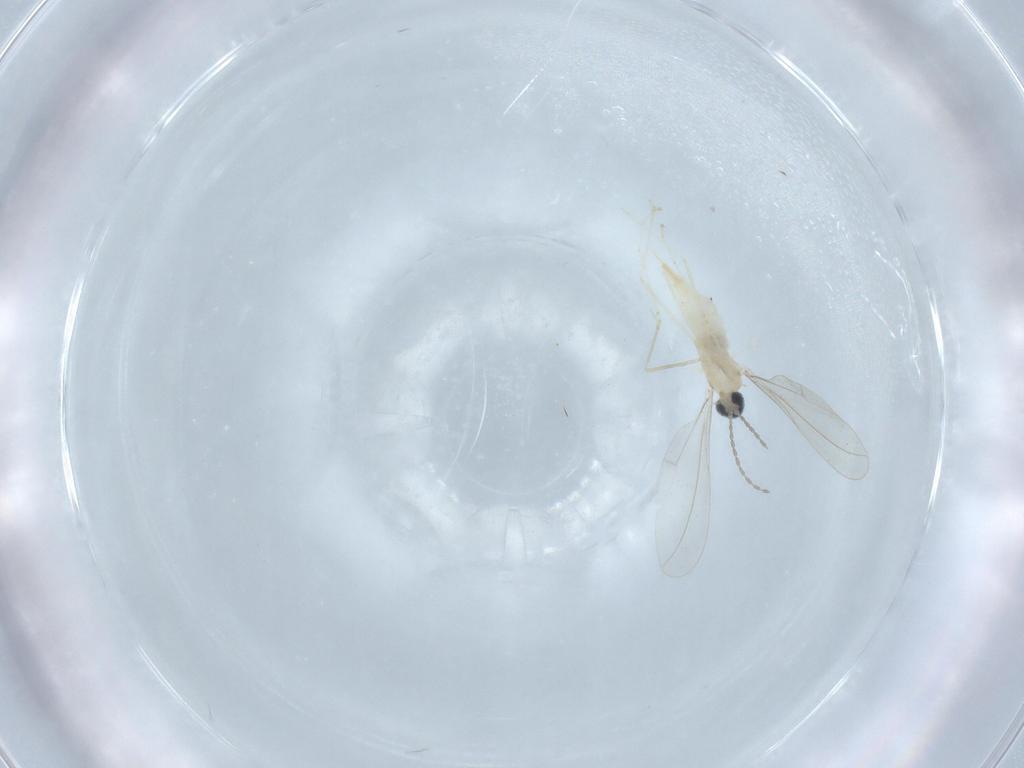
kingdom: Animalia
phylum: Arthropoda
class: Insecta
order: Diptera
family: Cecidomyiidae
